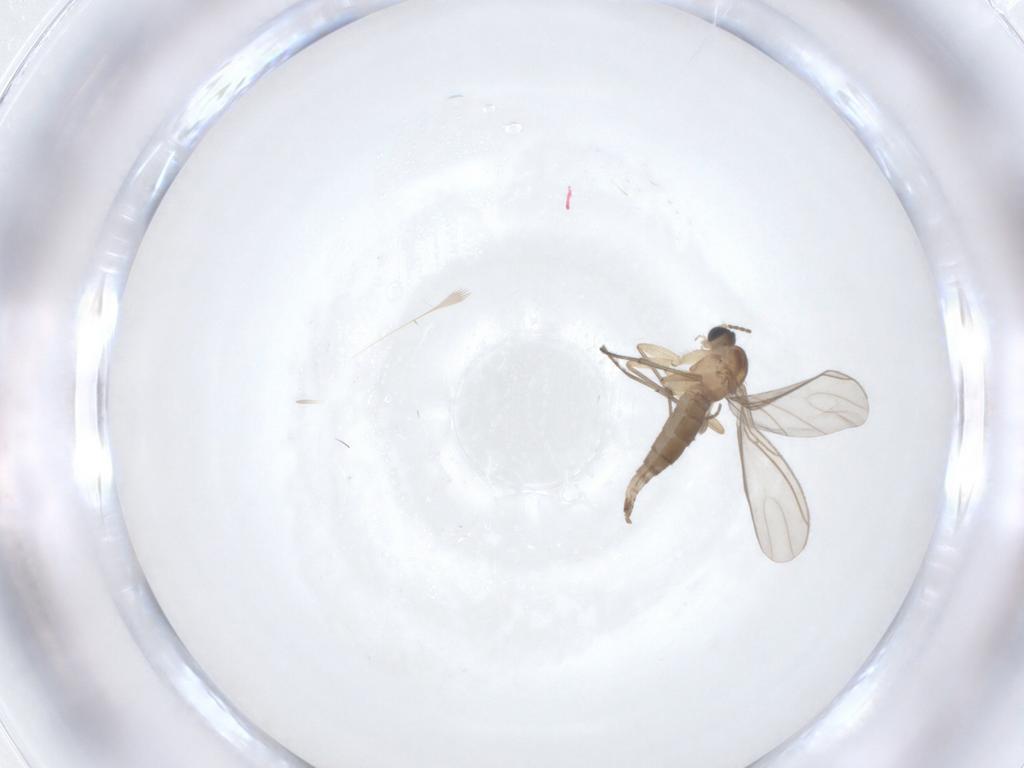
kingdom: Animalia
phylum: Arthropoda
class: Insecta
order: Diptera
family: Sciaridae
